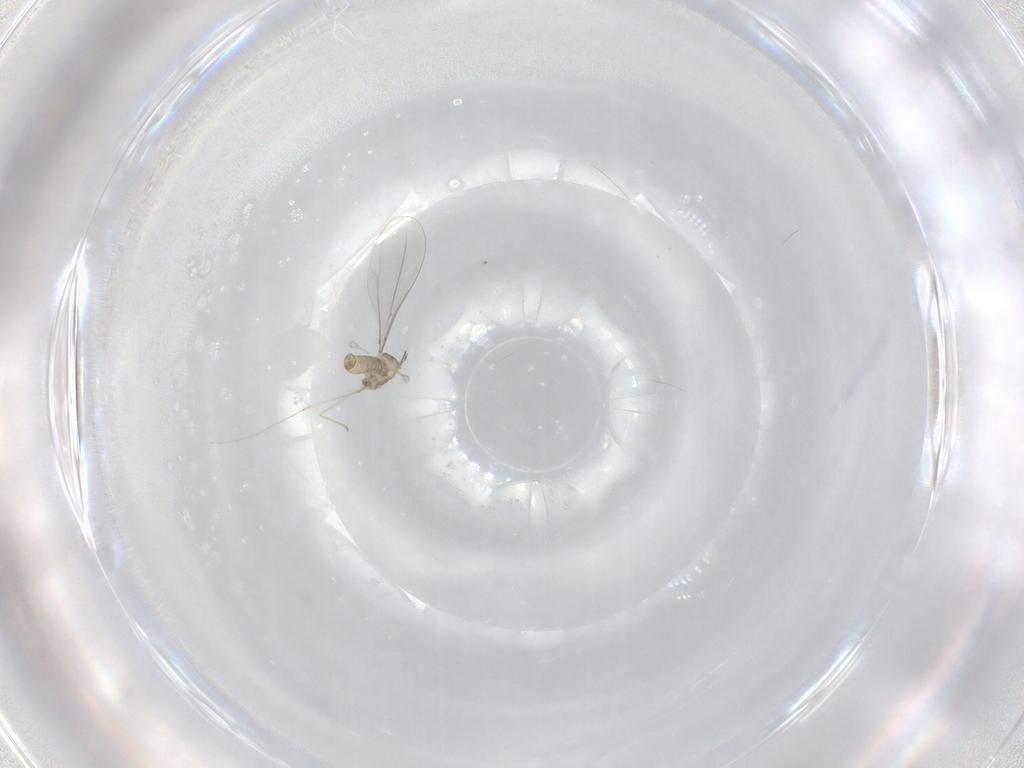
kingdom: Animalia
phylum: Arthropoda
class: Insecta
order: Diptera
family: Cecidomyiidae
